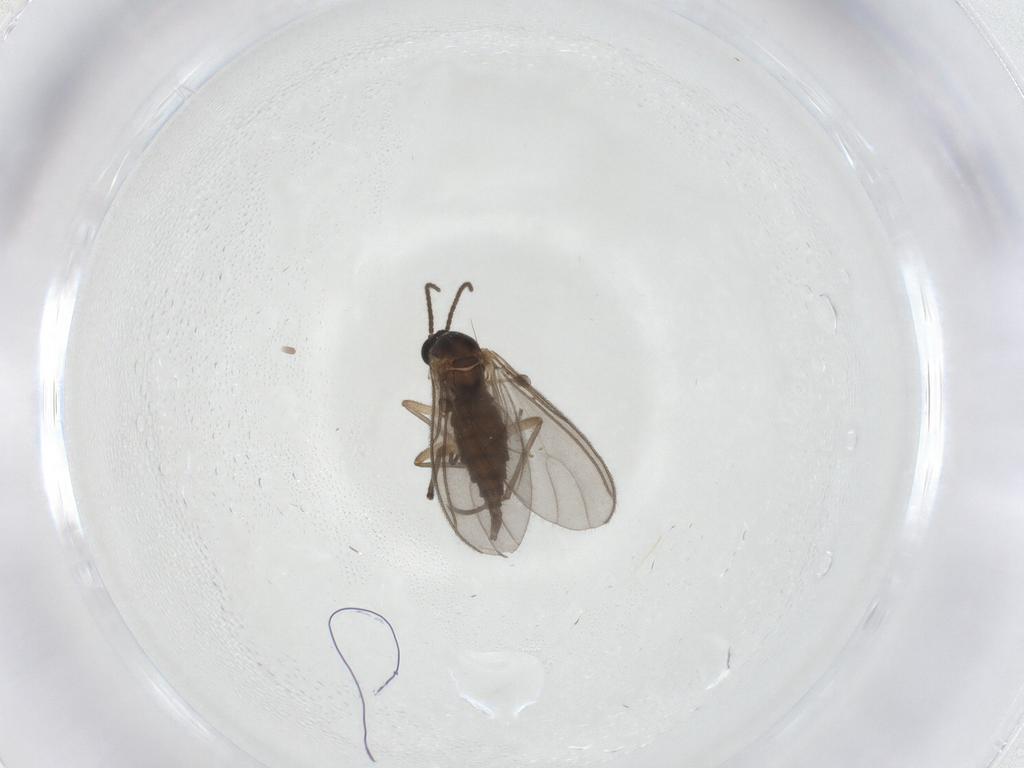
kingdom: Animalia
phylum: Arthropoda
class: Insecta
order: Diptera
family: Sciaridae
